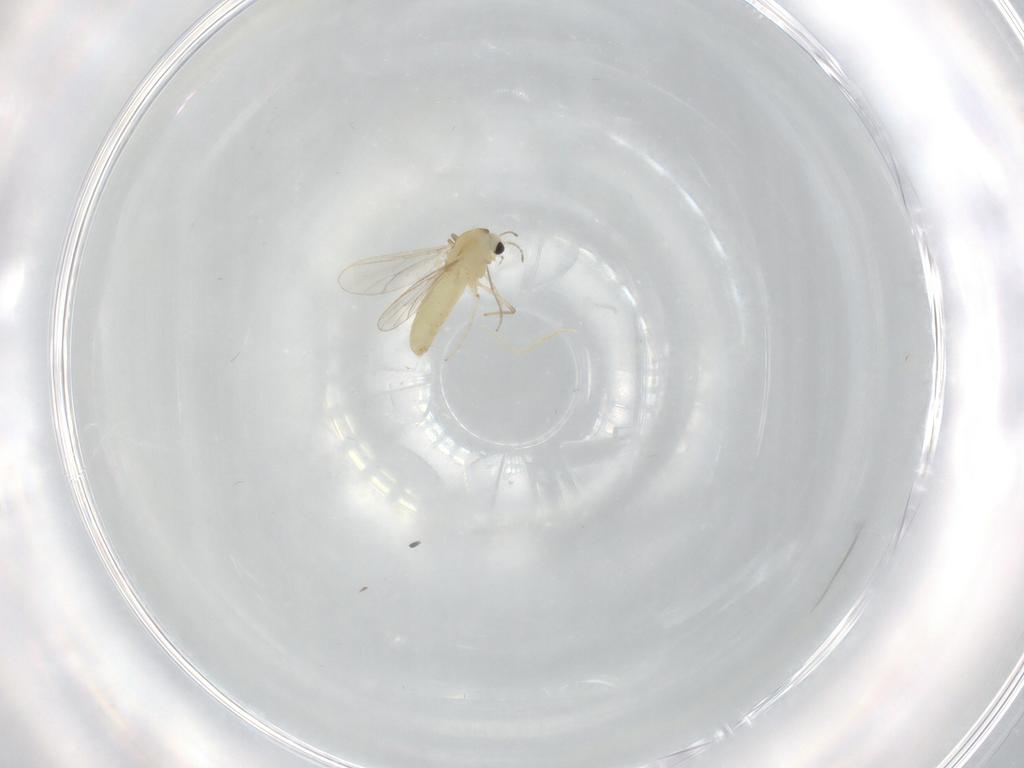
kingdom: Animalia
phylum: Arthropoda
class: Insecta
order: Diptera
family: Chironomidae
